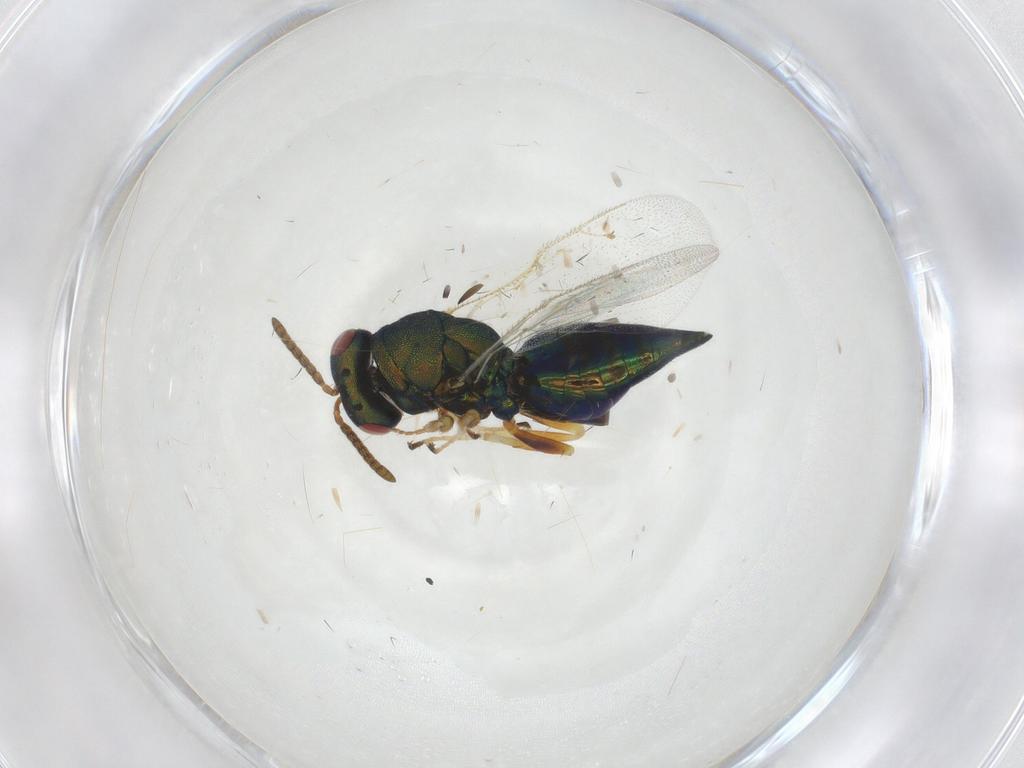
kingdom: Animalia
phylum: Arthropoda
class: Insecta
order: Hymenoptera
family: Pteromalidae
